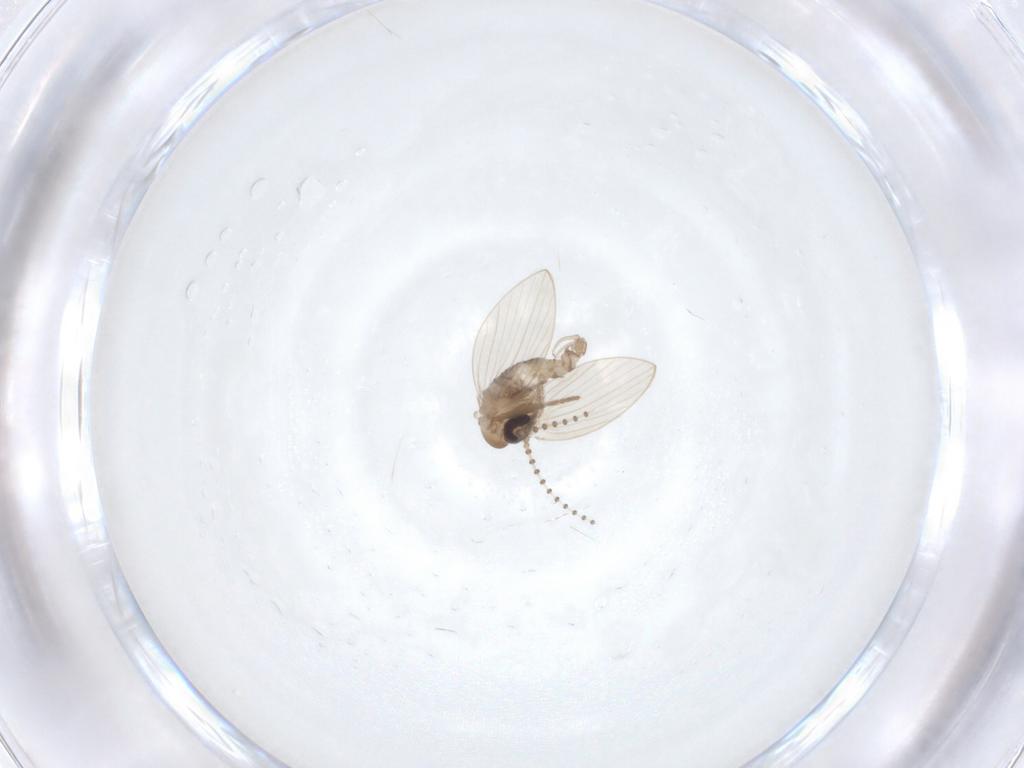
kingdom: Animalia
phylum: Arthropoda
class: Insecta
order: Diptera
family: Psychodidae
